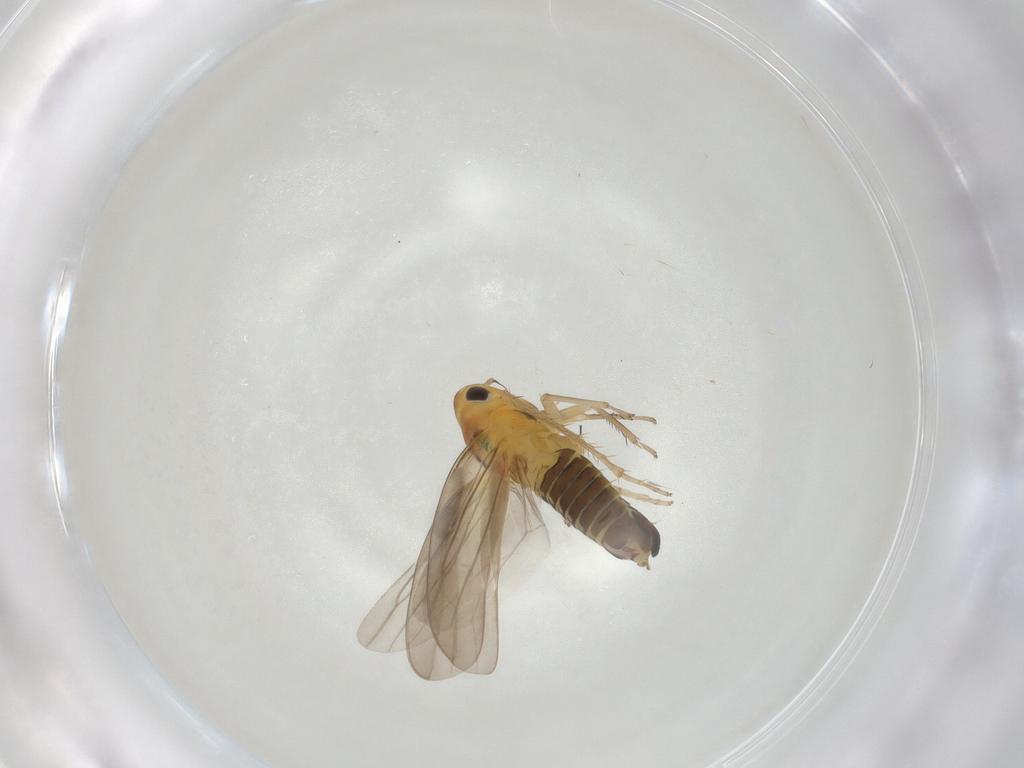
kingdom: Animalia
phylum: Arthropoda
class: Insecta
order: Hemiptera
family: Cicadellidae
